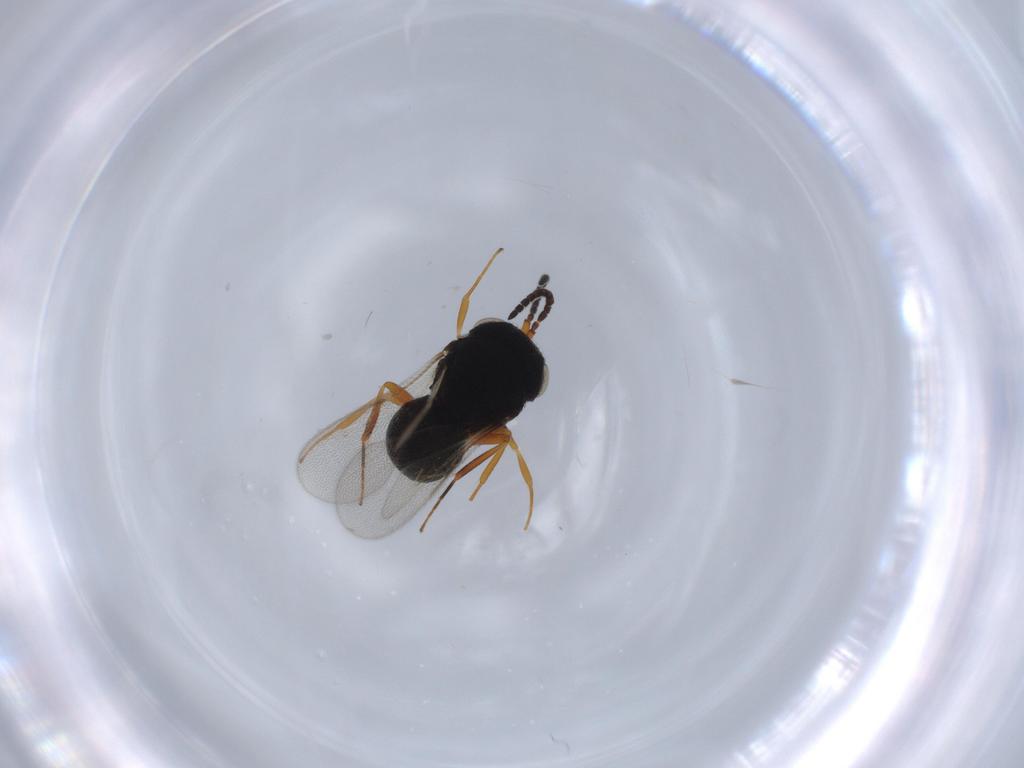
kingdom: Animalia
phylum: Arthropoda
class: Insecta
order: Hymenoptera
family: Scelionidae
